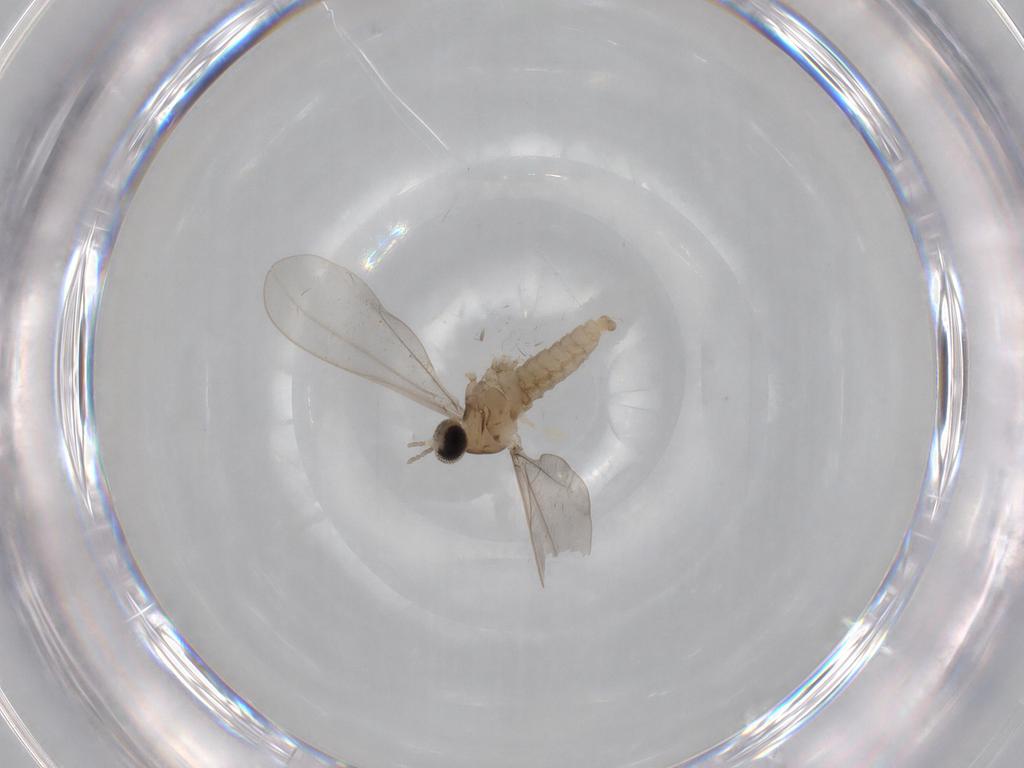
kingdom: Animalia
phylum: Arthropoda
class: Insecta
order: Diptera
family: Cecidomyiidae
